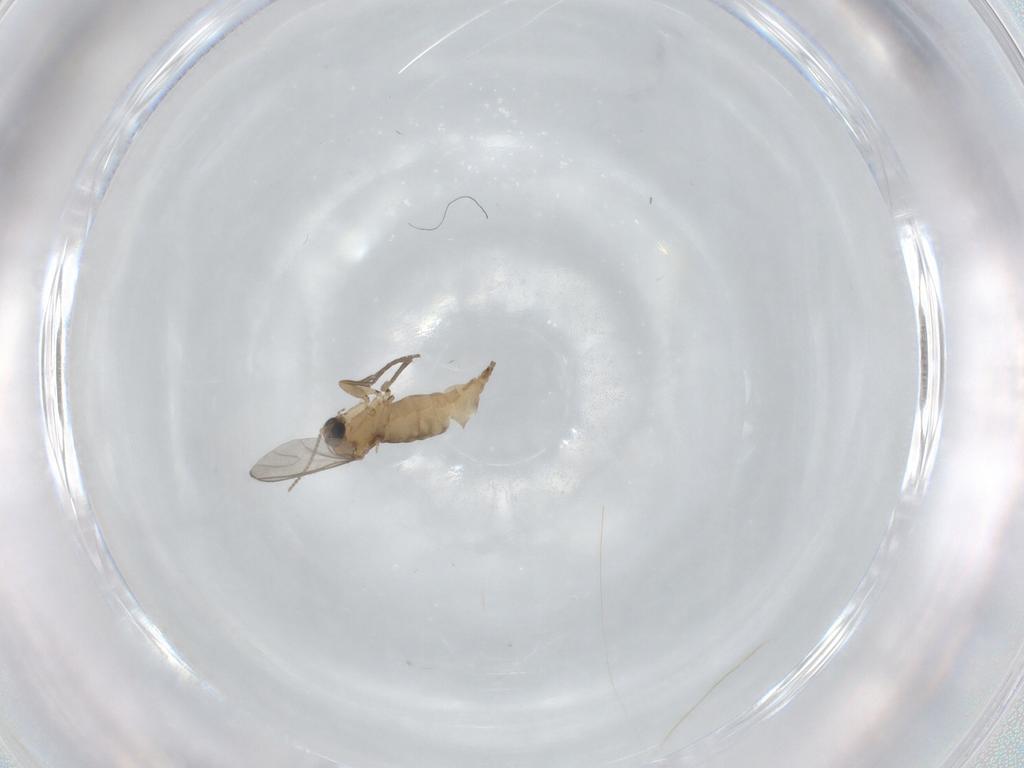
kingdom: Animalia
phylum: Arthropoda
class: Insecta
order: Diptera
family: Sciaridae
